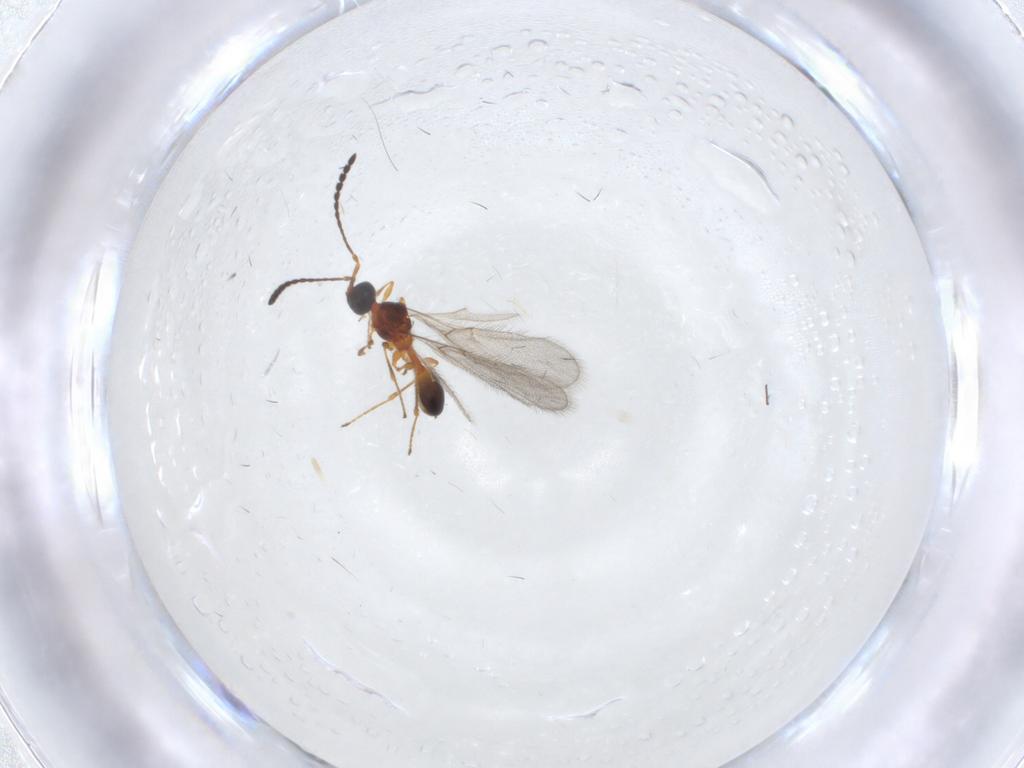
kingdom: Animalia
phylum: Arthropoda
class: Insecta
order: Hymenoptera
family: Diapriidae
